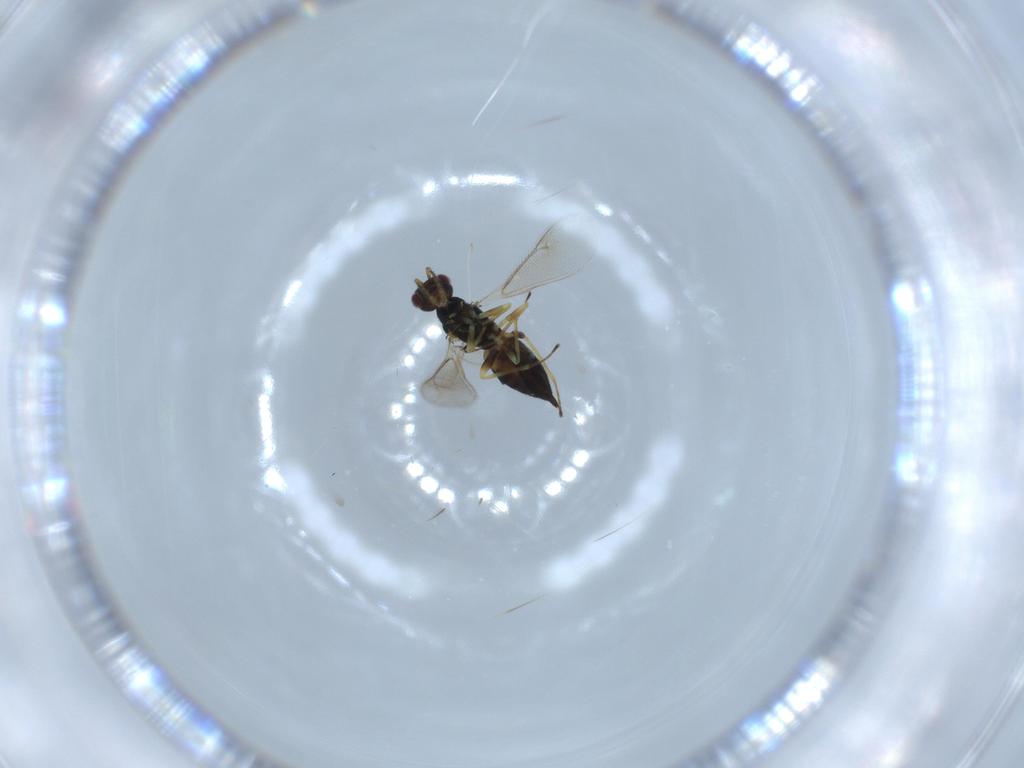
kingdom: Animalia
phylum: Arthropoda
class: Insecta
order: Hymenoptera
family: Eulophidae
